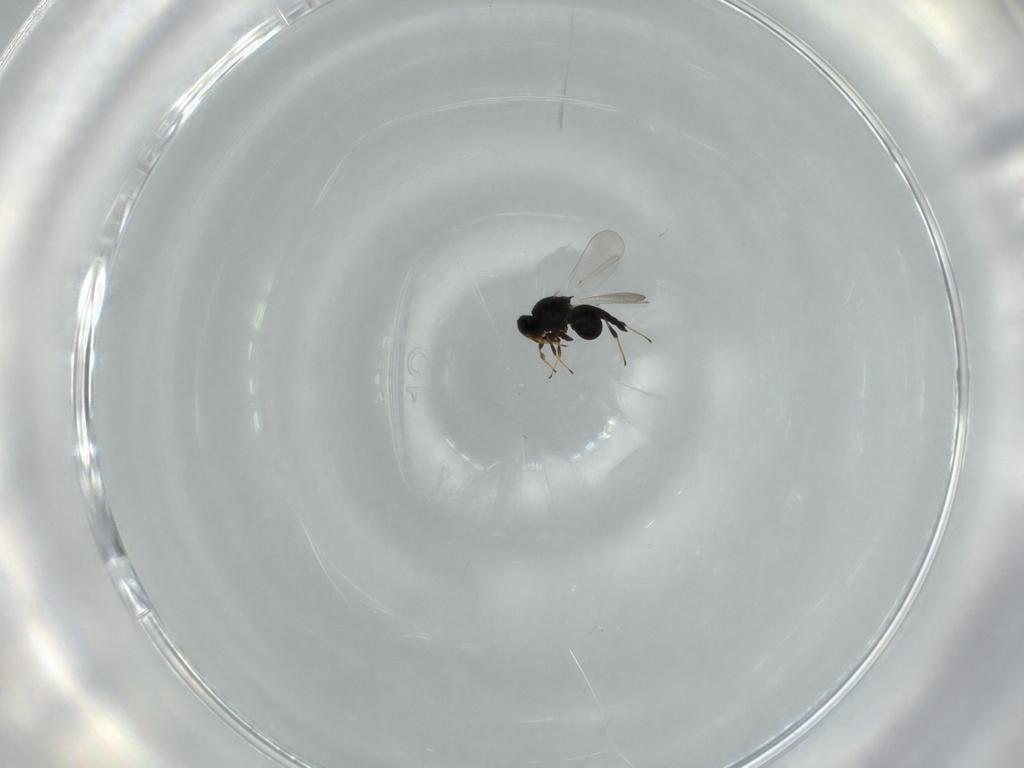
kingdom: Animalia
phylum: Arthropoda
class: Insecta
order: Hymenoptera
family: Platygastridae
